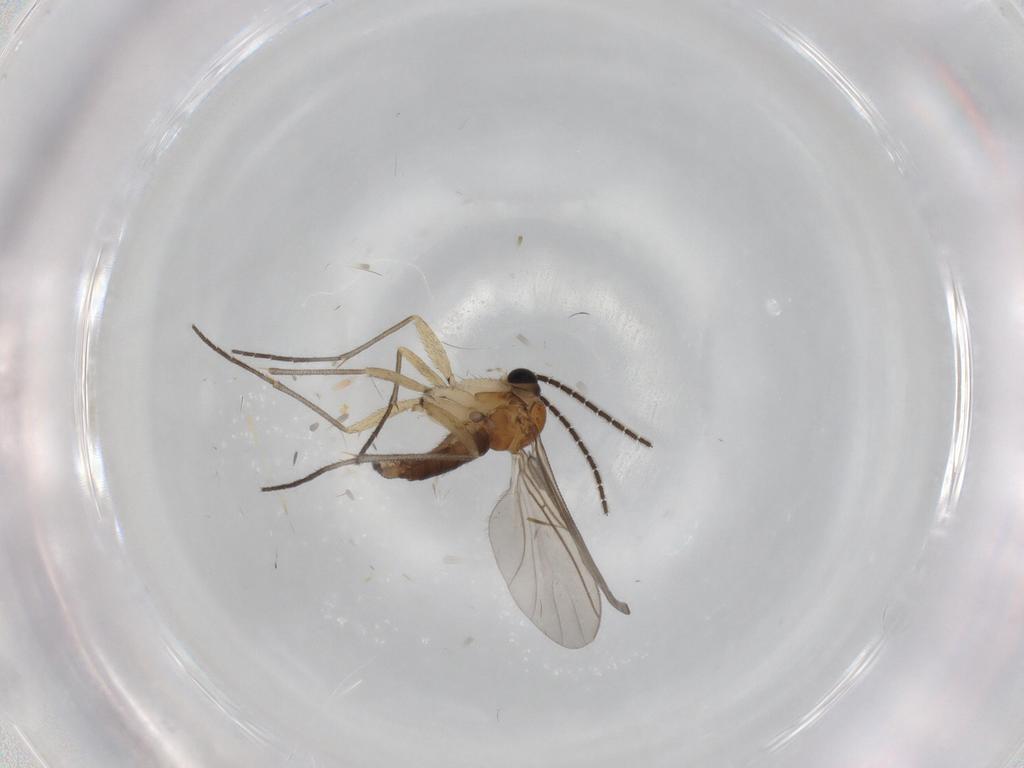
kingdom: Animalia
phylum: Arthropoda
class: Insecta
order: Diptera
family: Sciaridae
